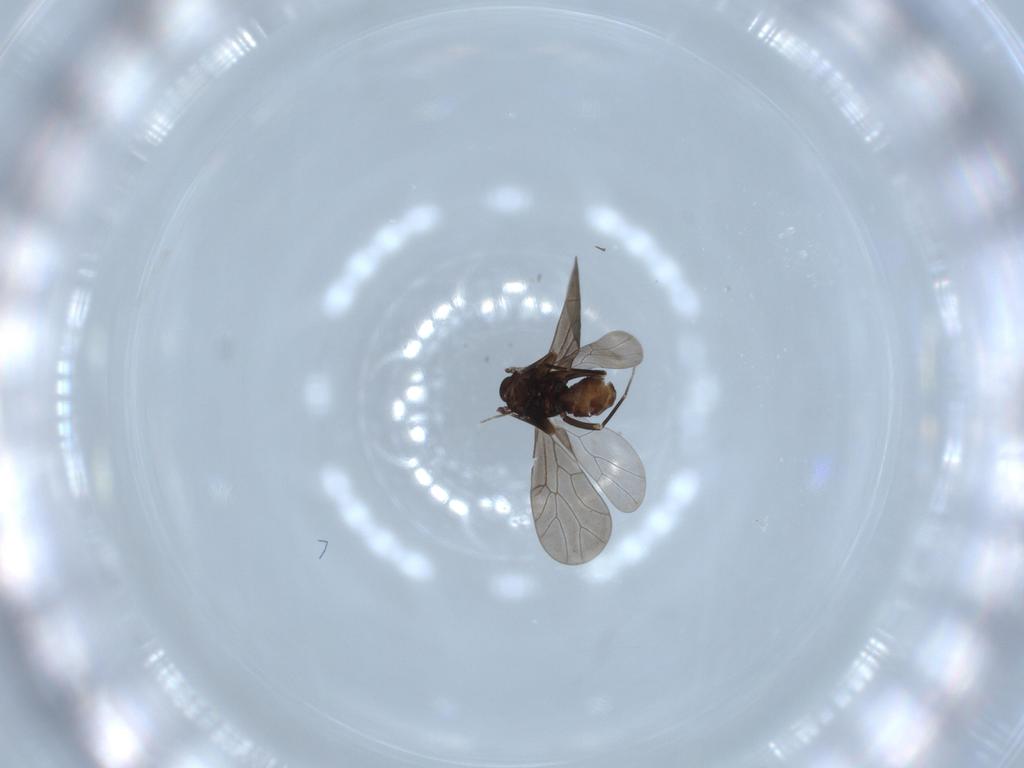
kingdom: Animalia
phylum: Arthropoda
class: Insecta
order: Psocodea
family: Lepidopsocidae
